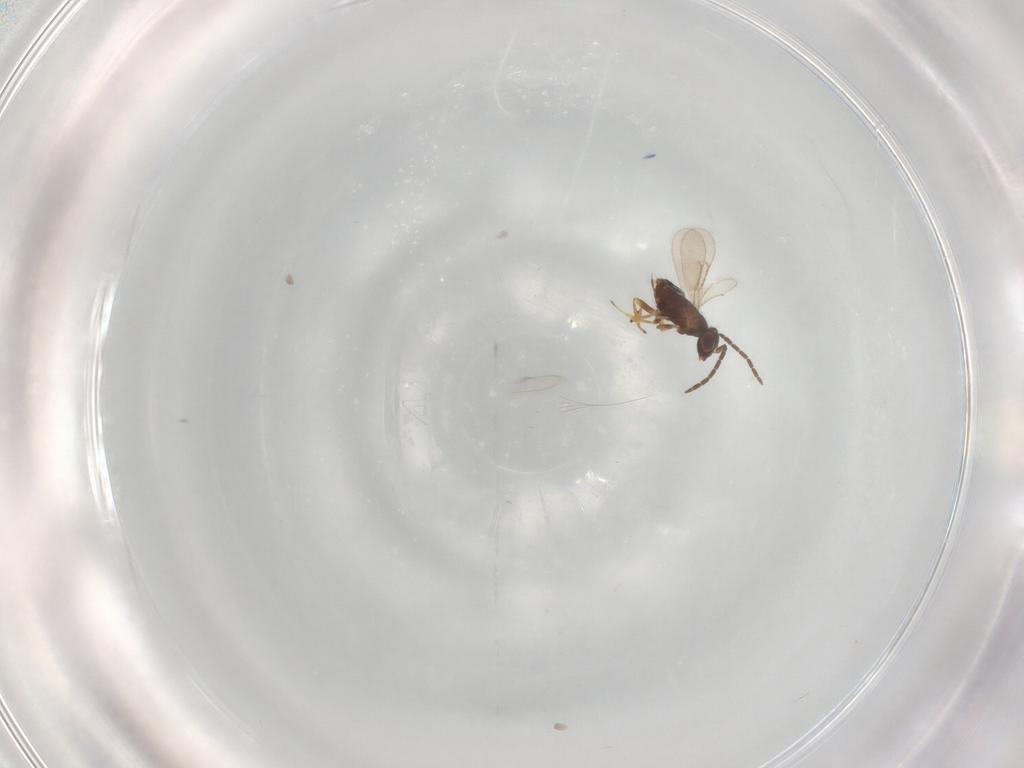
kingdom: Animalia
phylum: Arthropoda
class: Insecta
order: Hymenoptera
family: Aphelinidae
